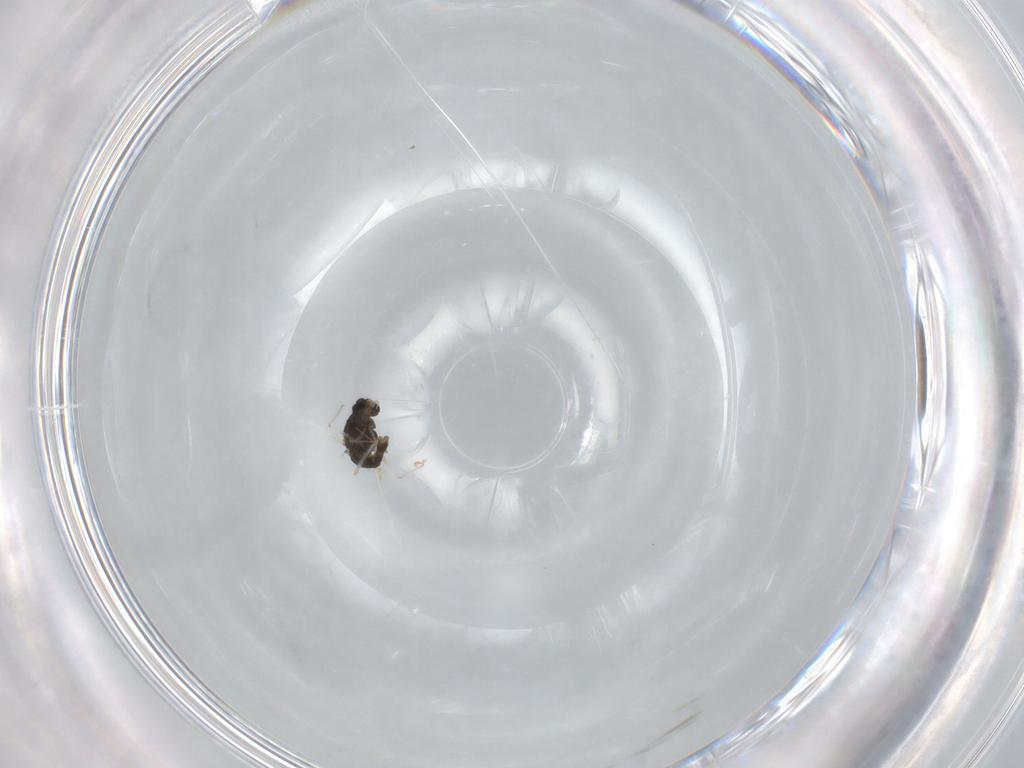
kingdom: Animalia
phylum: Arthropoda
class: Insecta
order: Diptera
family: Chironomidae
